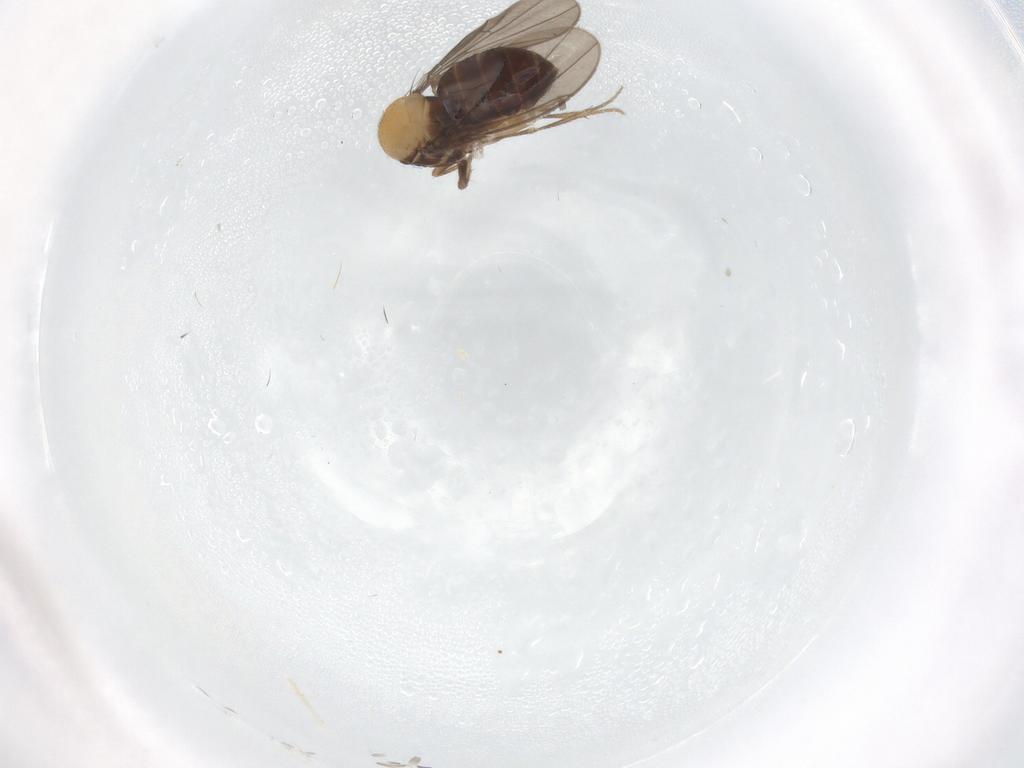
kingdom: Animalia
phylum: Arthropoda
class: Insecta
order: Diptera
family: Drosophilidae
